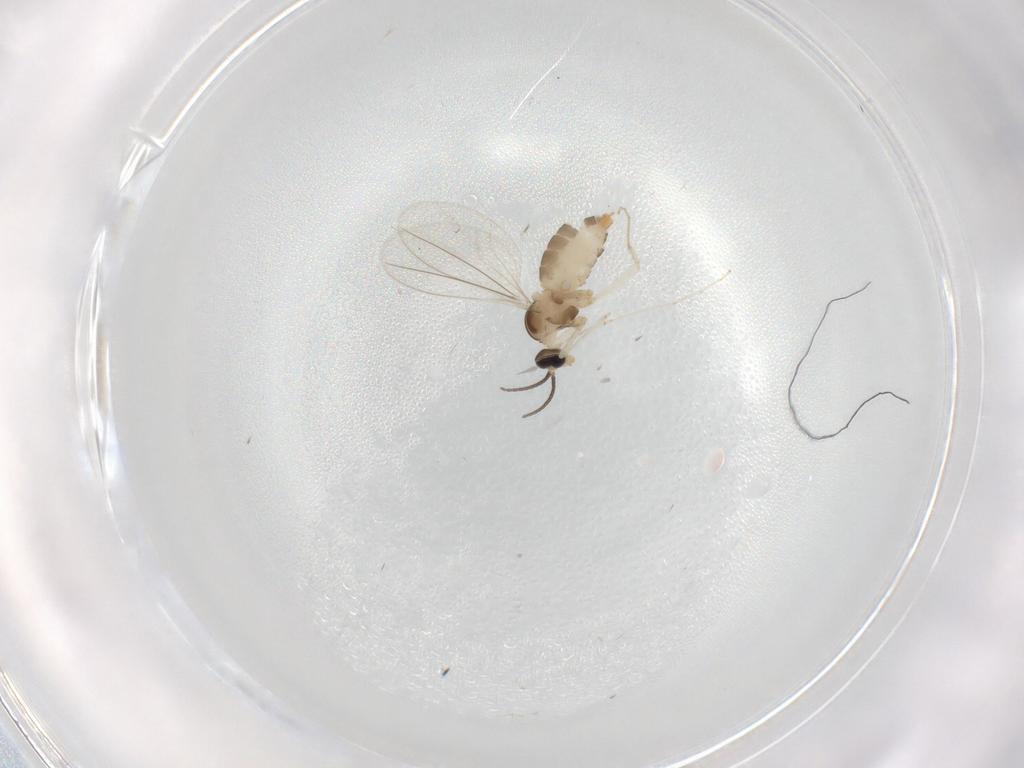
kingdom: Animalia
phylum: Arthropoda
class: Insecta
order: Diptera
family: Cecidomyiidae
